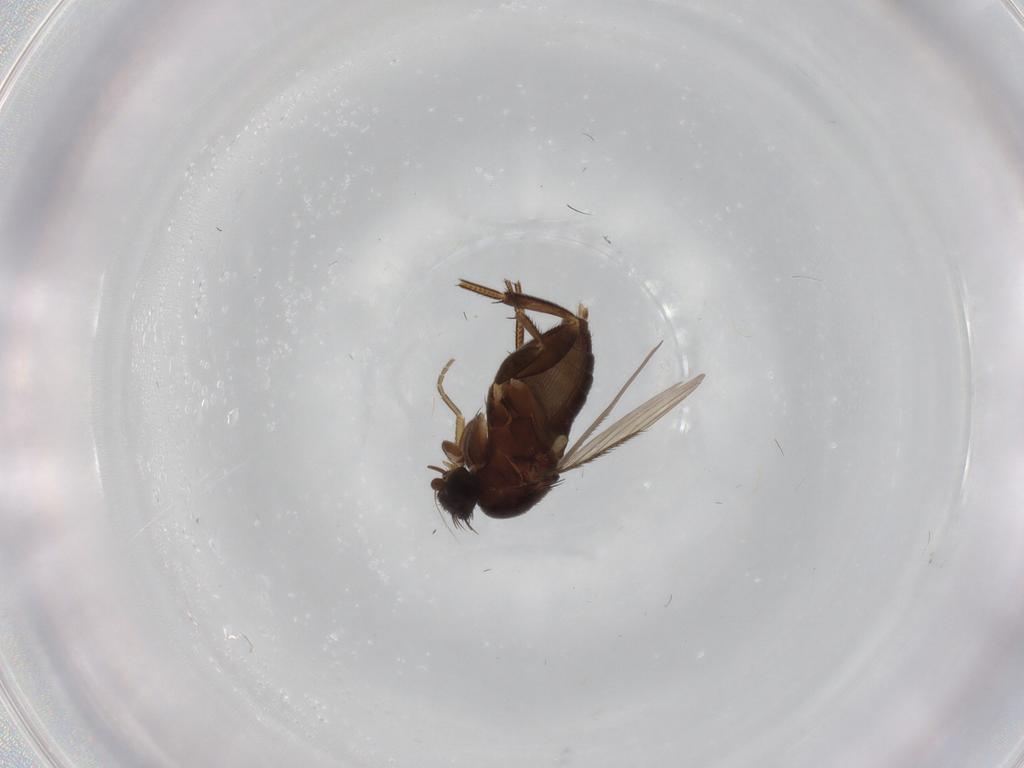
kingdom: Animalia
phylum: Arthropoda
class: Insecta
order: Diptera
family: Phoridae
